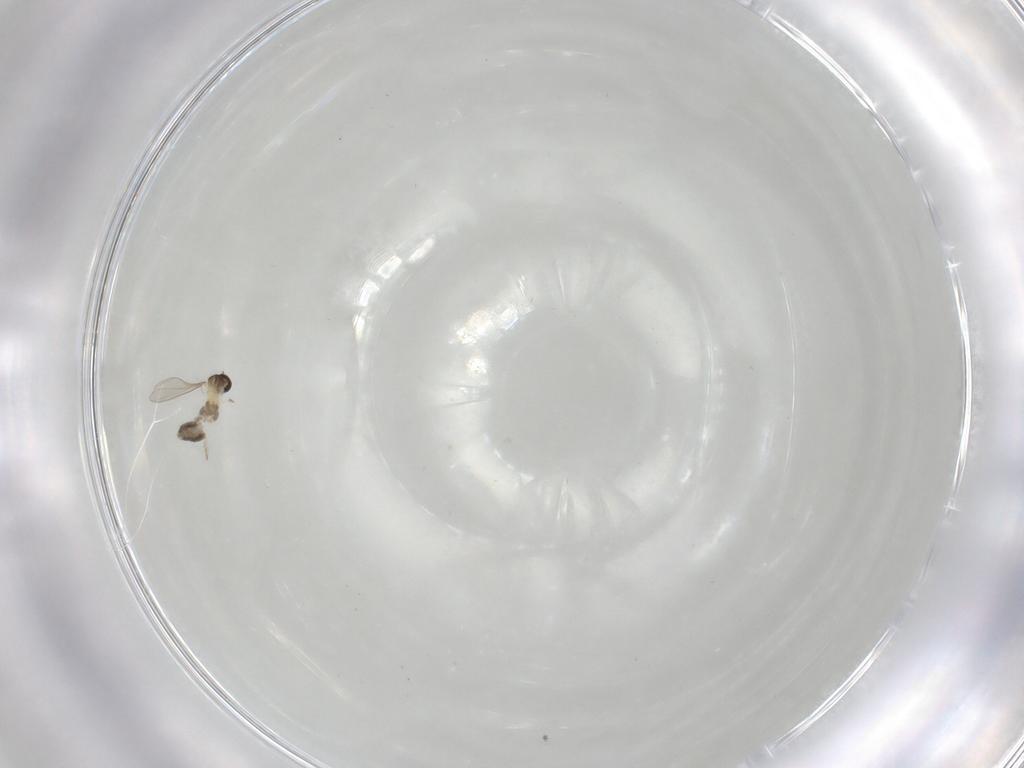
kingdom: Animalia
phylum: Arthropoda
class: Insecta
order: Diptera
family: Cecidomyiidae
